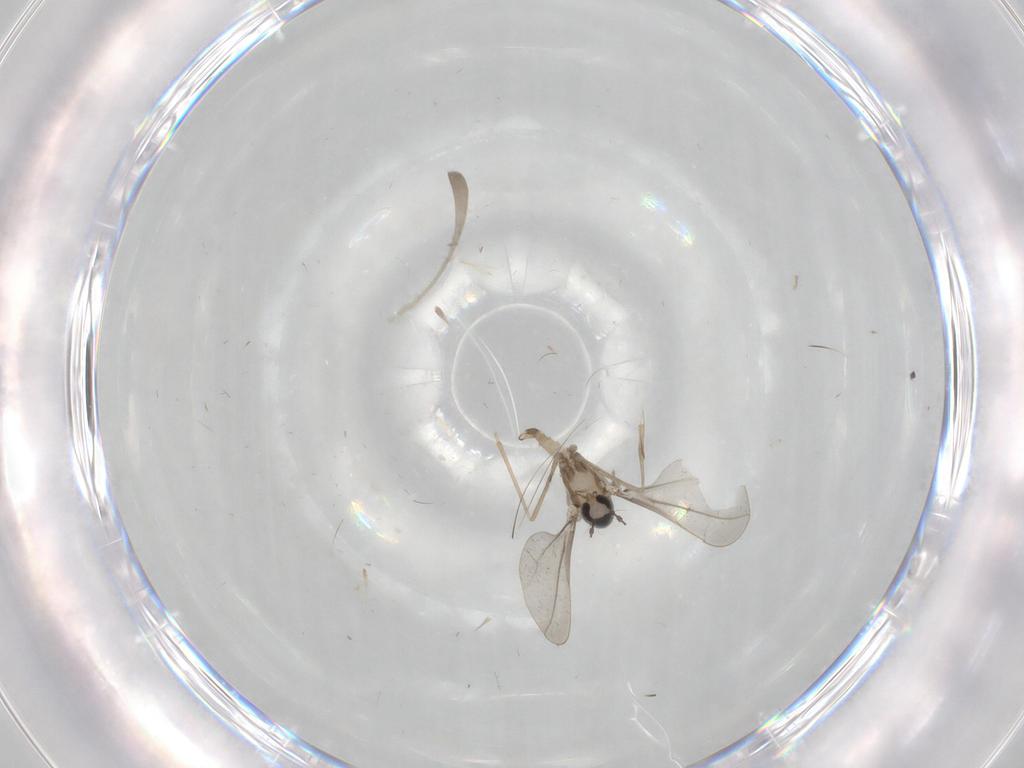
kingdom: Animalia
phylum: Arthropoda
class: Insecta
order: Diptera
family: Cecidomyiidae
